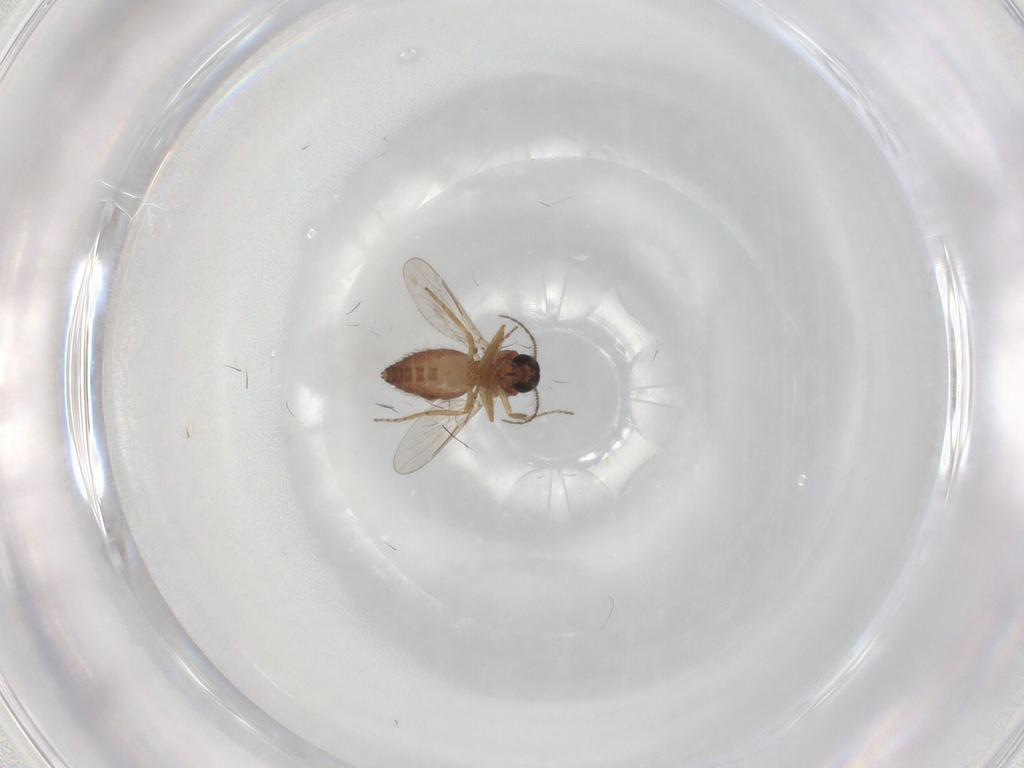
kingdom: Animalia
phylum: Arthropoda
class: Insecta
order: Diptera
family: Ceratopogonidae
